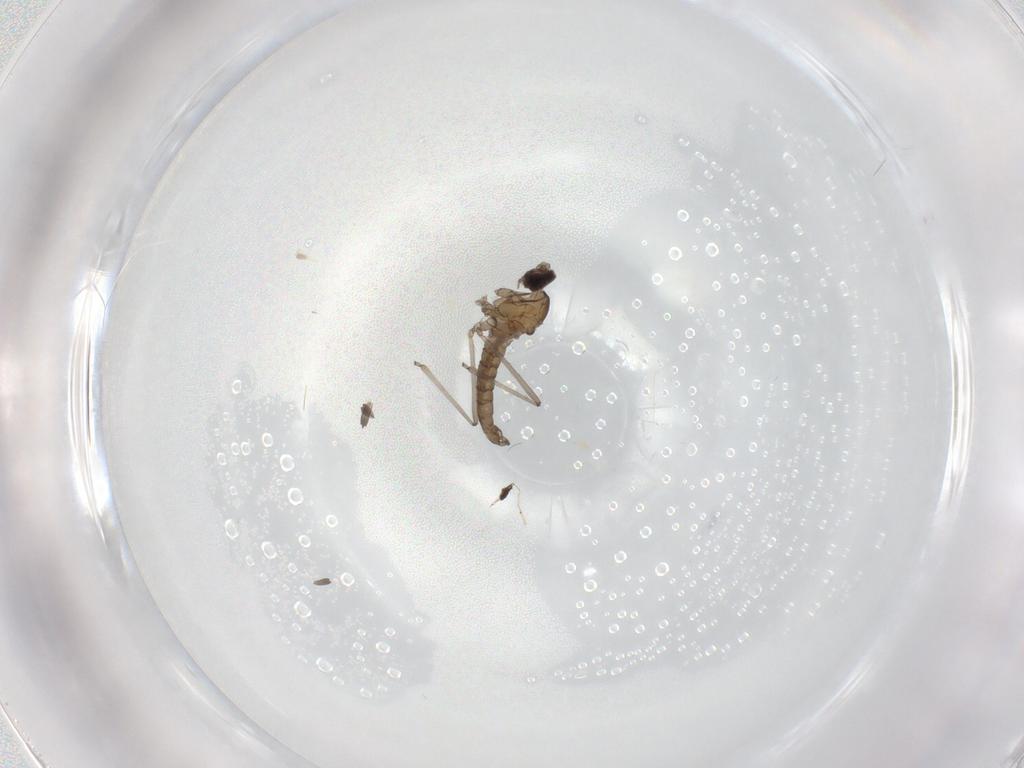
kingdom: Animalia
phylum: Arthropoda
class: Insecta
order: Diptera
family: Cecidomyiidae
